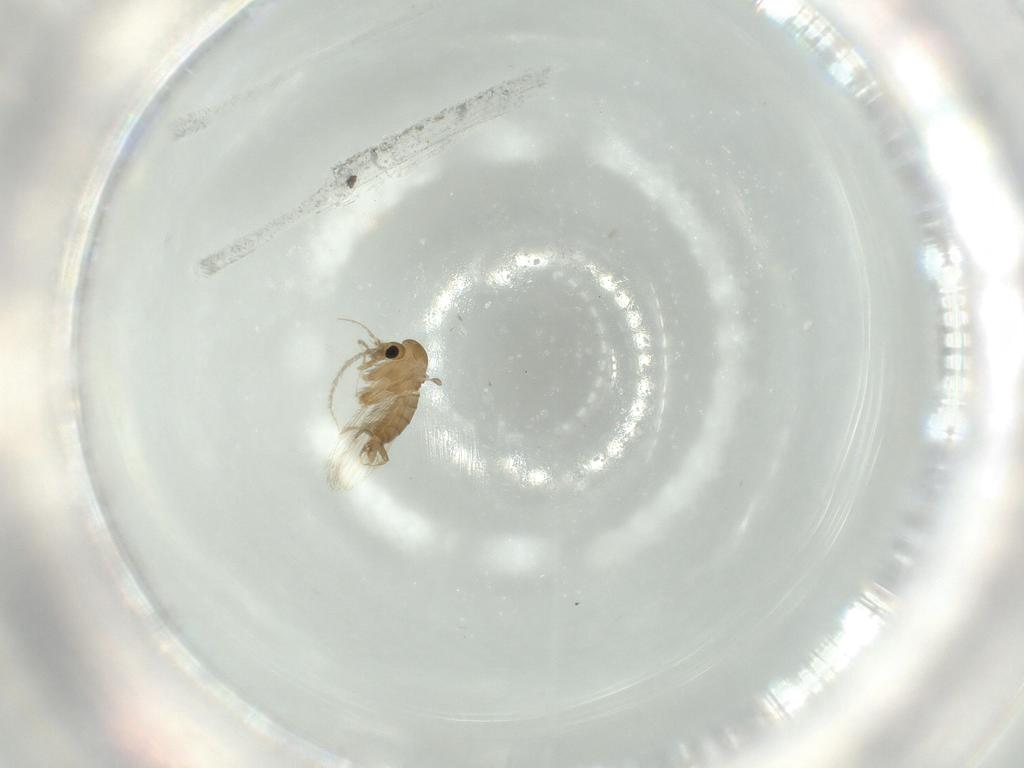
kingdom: Animalia
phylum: Arthropoda
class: Insecta
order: Diptera
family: Psychodidae
